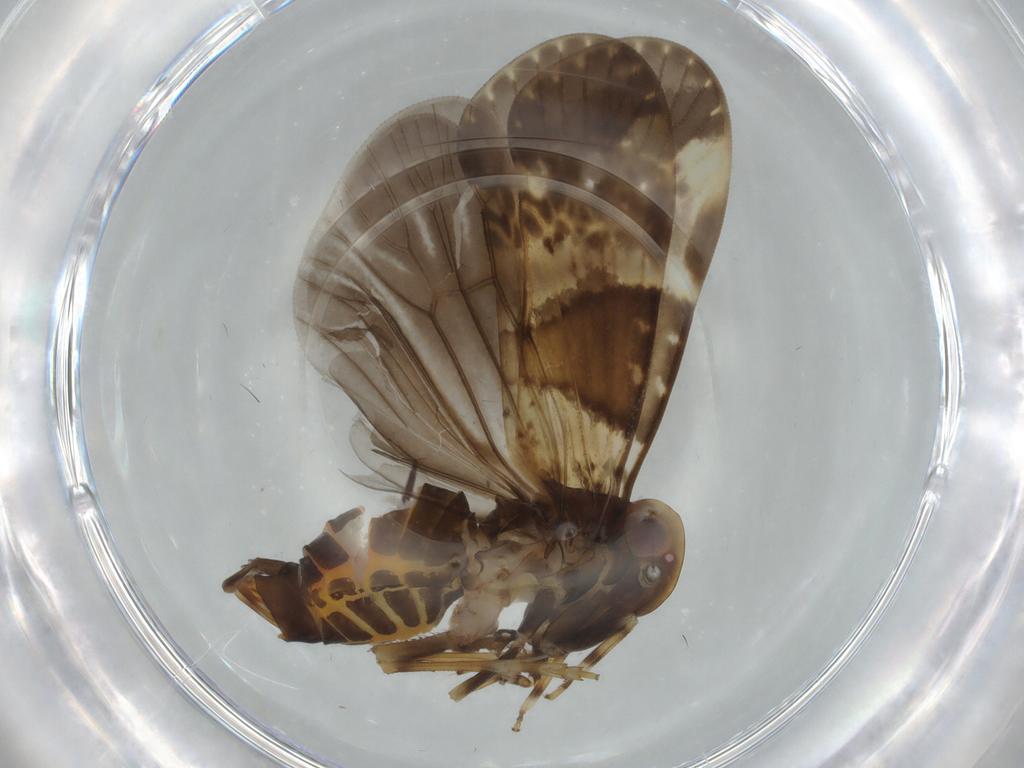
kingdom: Animalia
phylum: Arthropoda
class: Insecta
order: Hemiptera
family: Cixiidae
